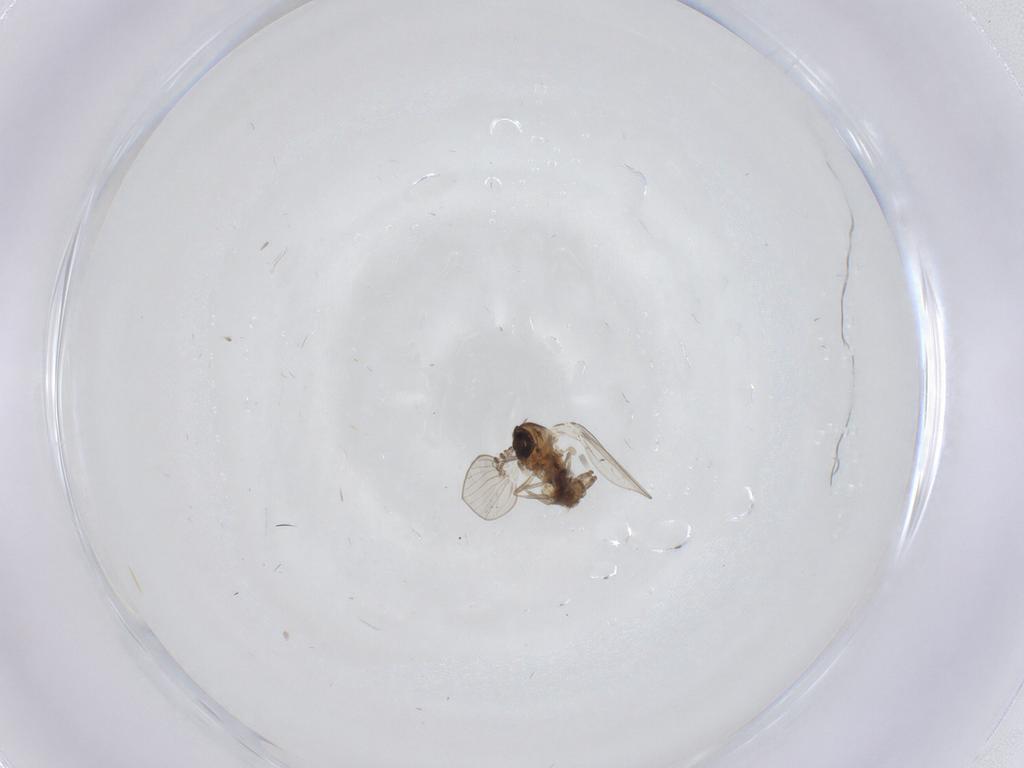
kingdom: Animalia
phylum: Arthropoda
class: Insecta
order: Diptera
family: Psychodidae
